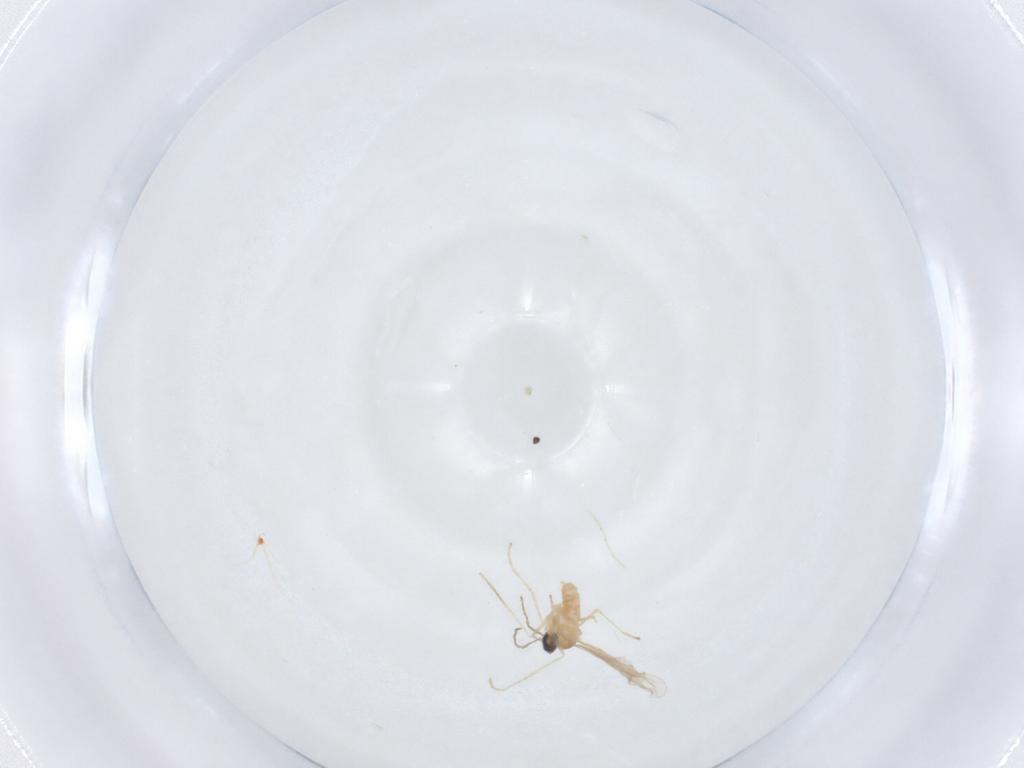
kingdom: Animalia
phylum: Arthropoda
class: Insecta
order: Diptera
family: Cecidomyiidae
